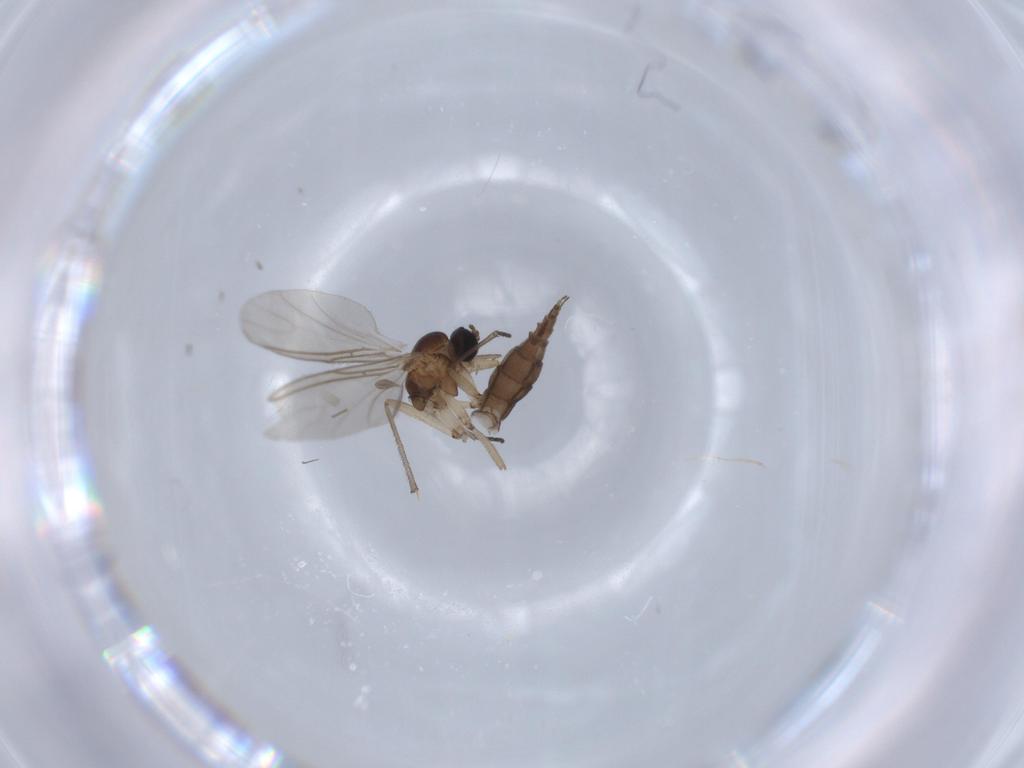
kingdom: Animalia
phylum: Arthropoda
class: Insecta
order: Diptera
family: Sciaridae
